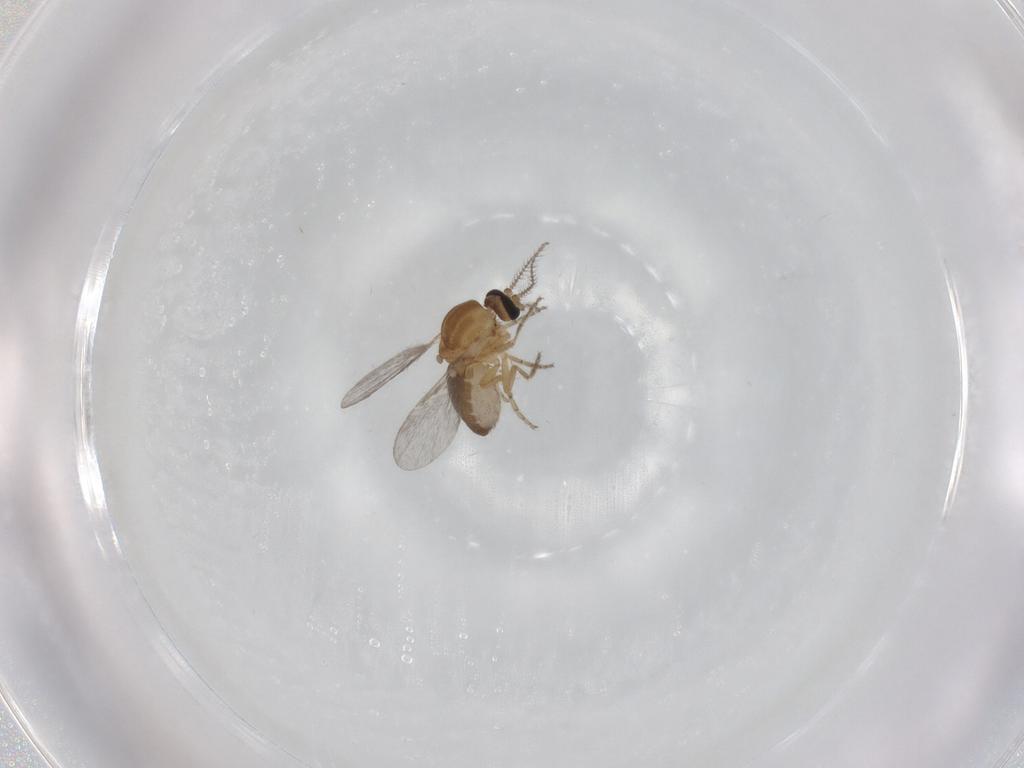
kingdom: Animalia
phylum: Arthropoda
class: Insecta
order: Diptera
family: Ceratopogonidae
